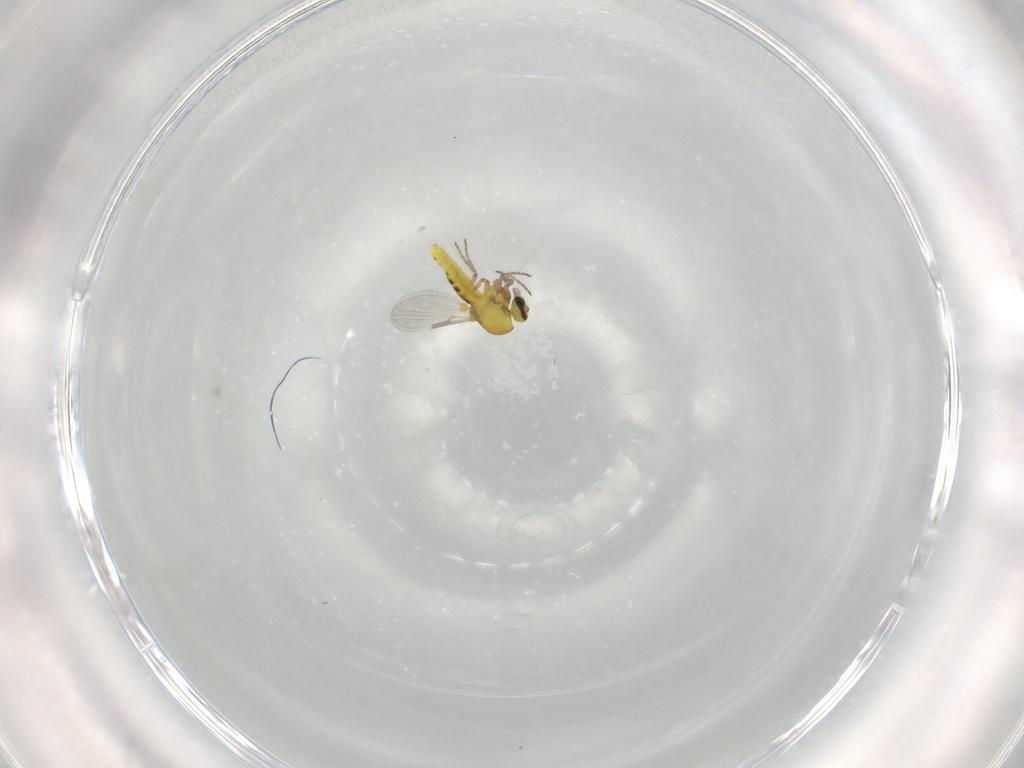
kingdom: Animalia
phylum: Arthropoda
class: Insecta
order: Diptera
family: Ceratopogonidae
